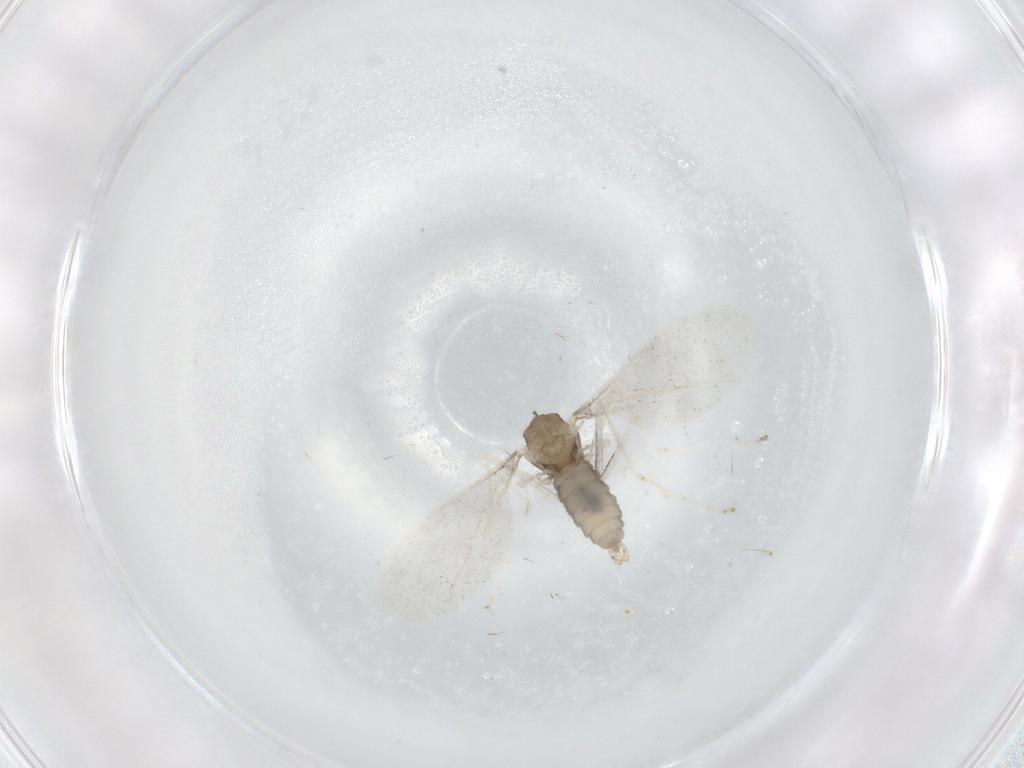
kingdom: Animalia
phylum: Arthropoda
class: Insecta
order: Diptera
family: Cecidomyiidae
